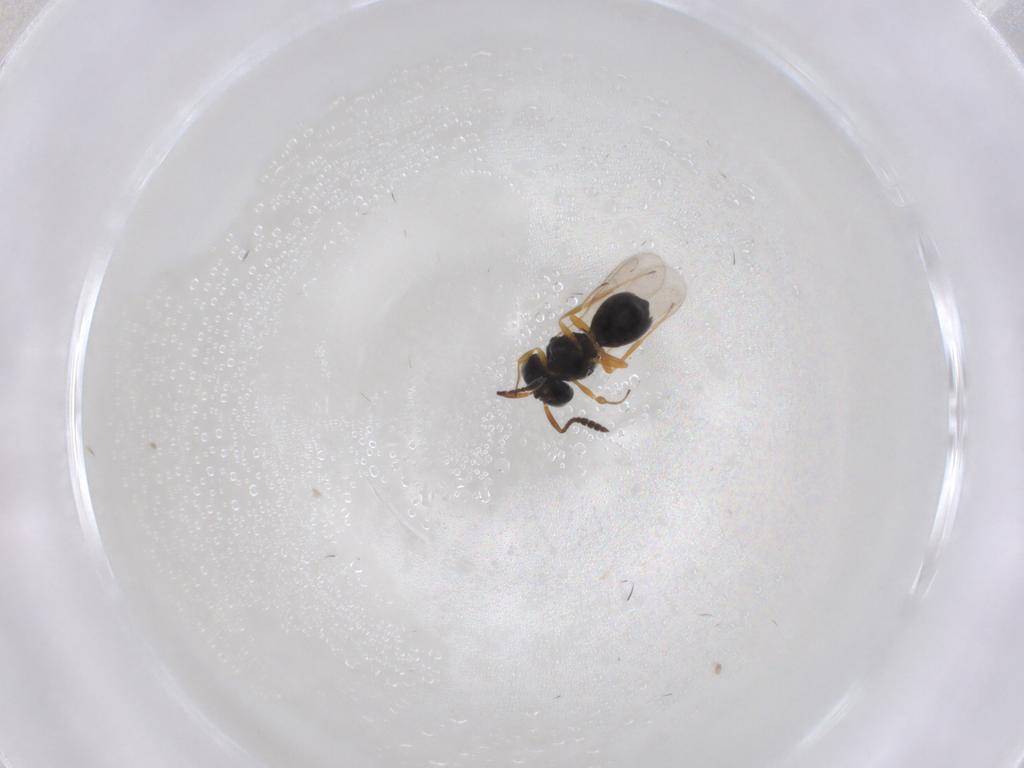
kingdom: Animalia
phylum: Arthropoda
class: Insecta
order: Hymenoptera
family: Scelionidae
